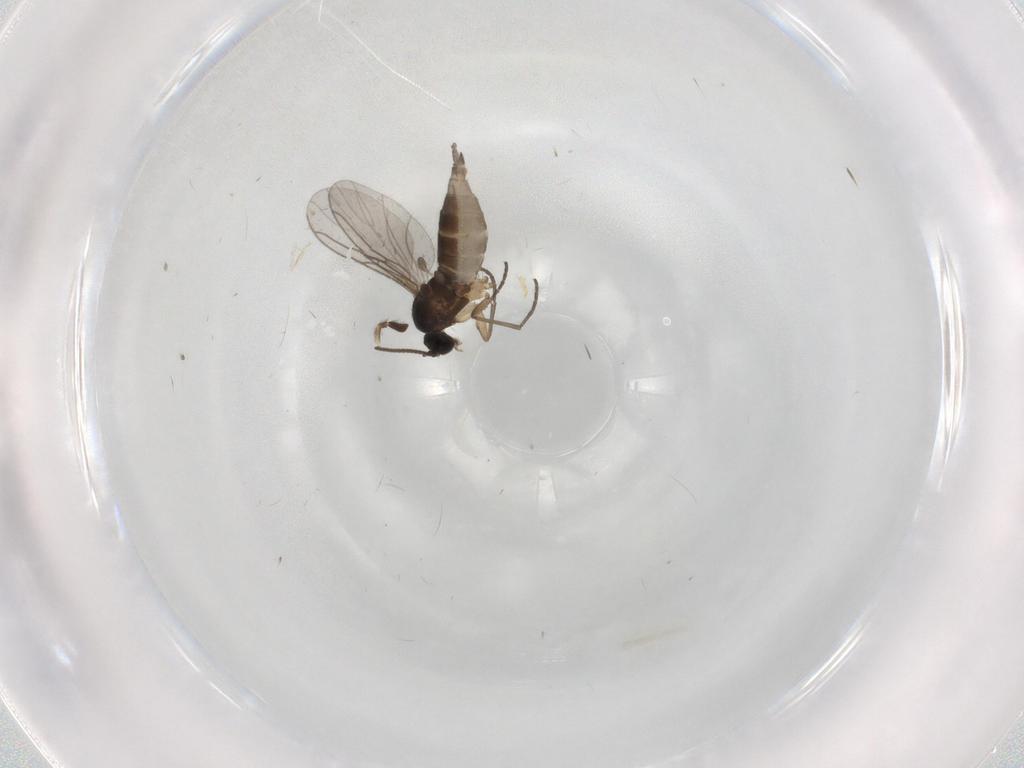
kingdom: Animalia
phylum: Arthropoda
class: Insecta
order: Diptera
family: Sciaridae
